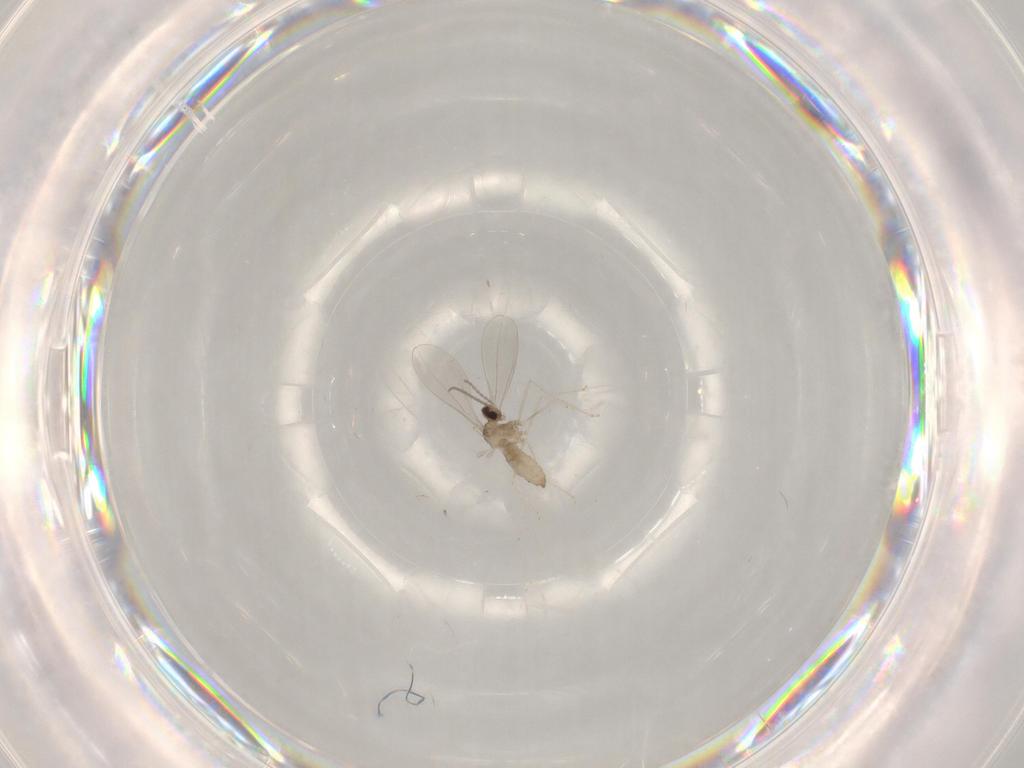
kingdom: Animalia
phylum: Arthropoda
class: Insecta
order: Diptera
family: Cecidomyiidae
